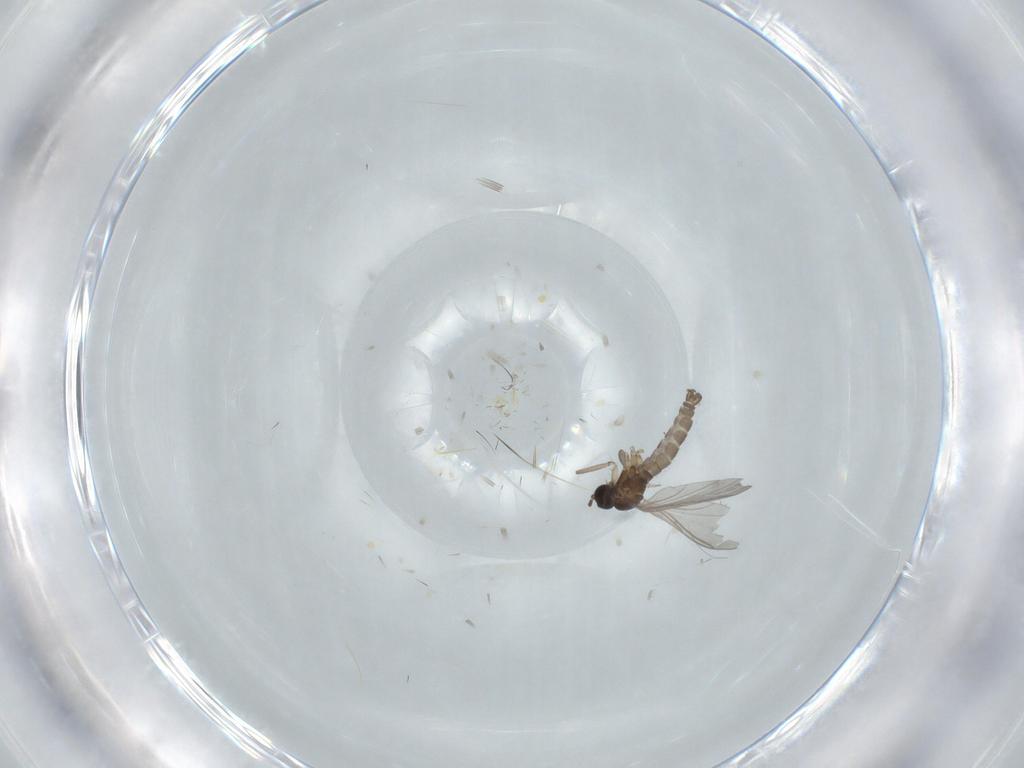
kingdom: Animalia
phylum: Arthropoda
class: Insecta
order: Diptera
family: Sciaridae
